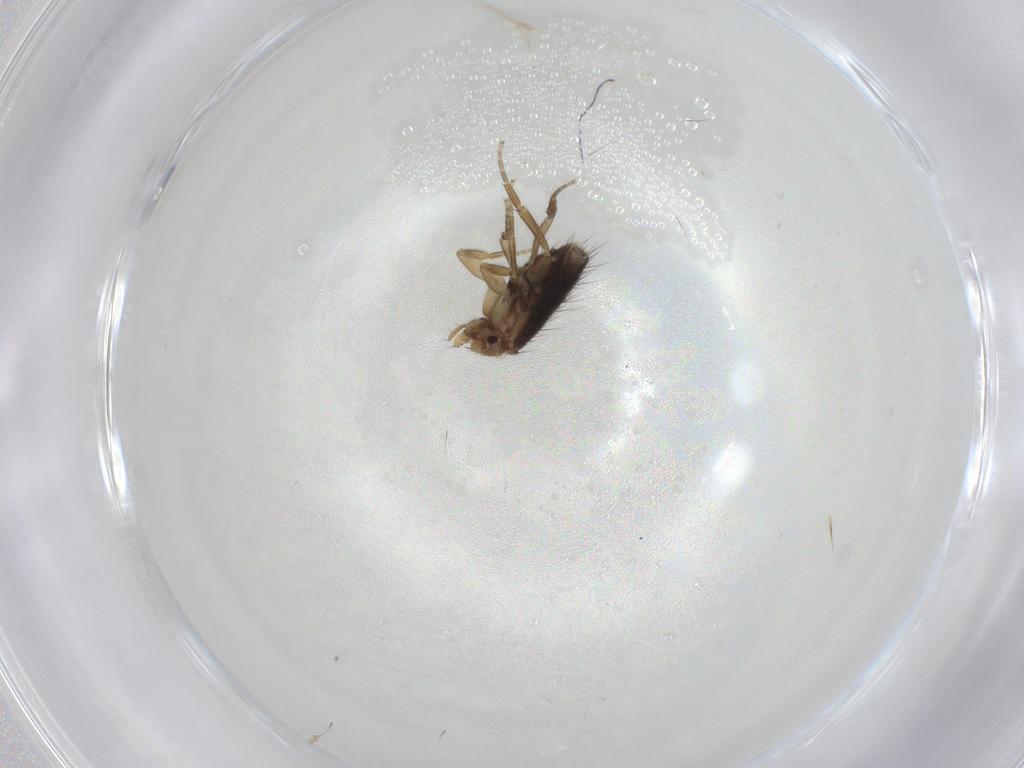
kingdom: Animalia
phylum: Arthropoda
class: Insecta
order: Diptera
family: Phoridae
